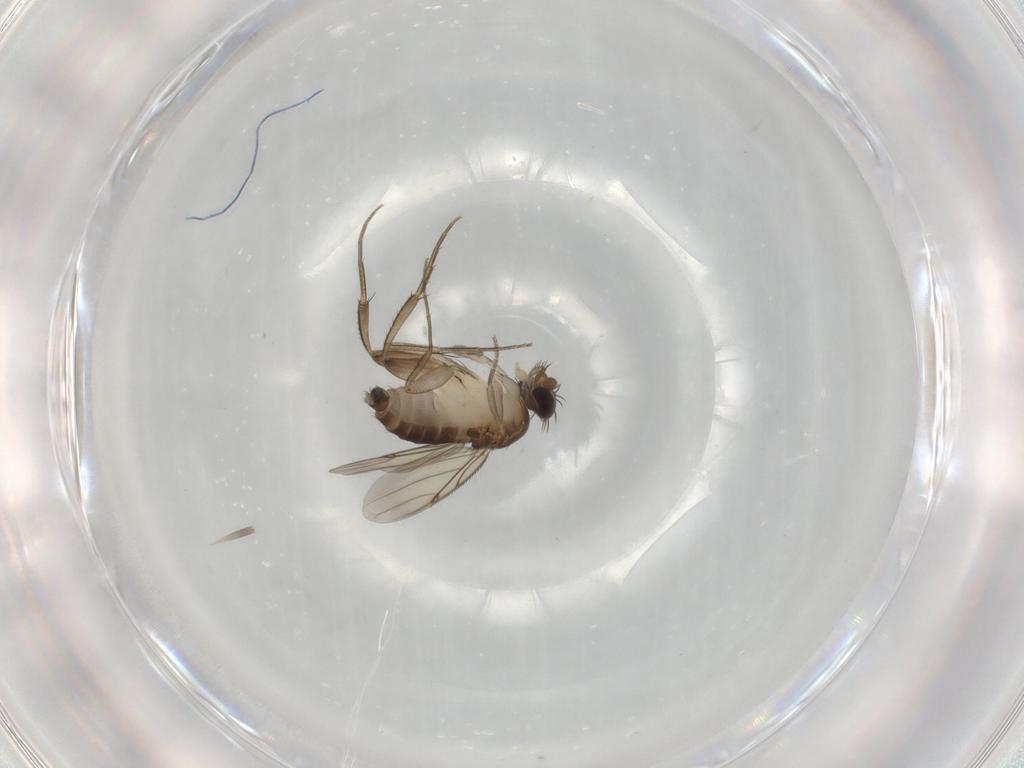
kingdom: Animalia
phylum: Arthropoda
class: Insecta
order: Diptera
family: Phoridae
